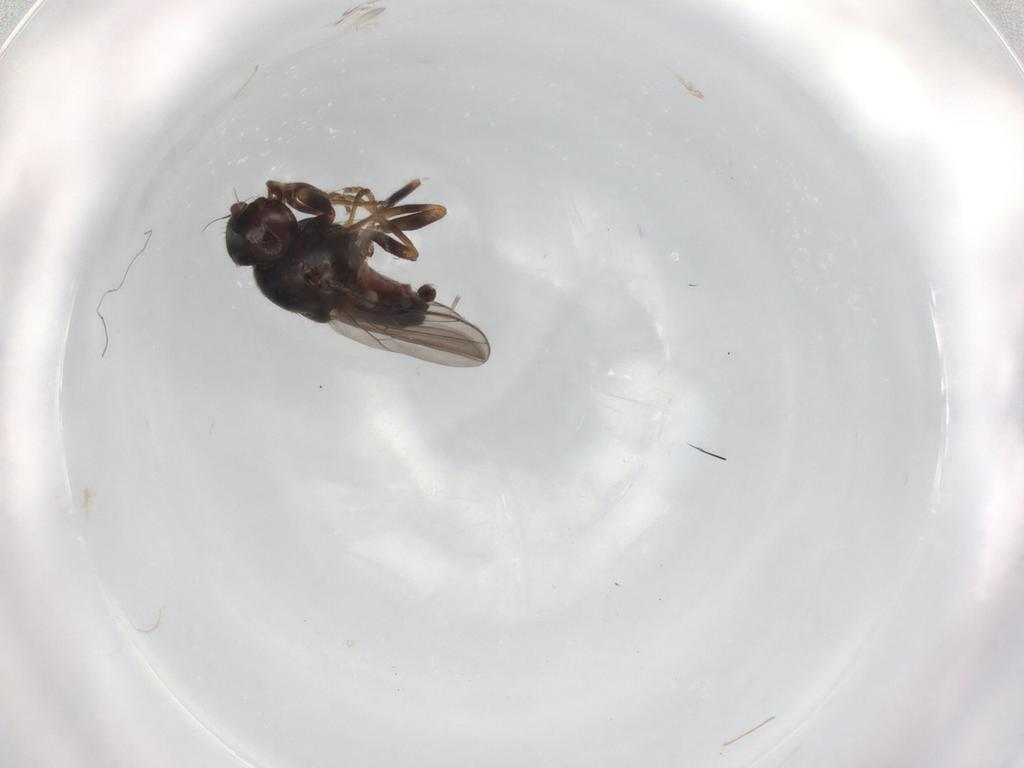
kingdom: Animalia
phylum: Arthropoda
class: Insecta
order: Diptera
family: Chloropidae
